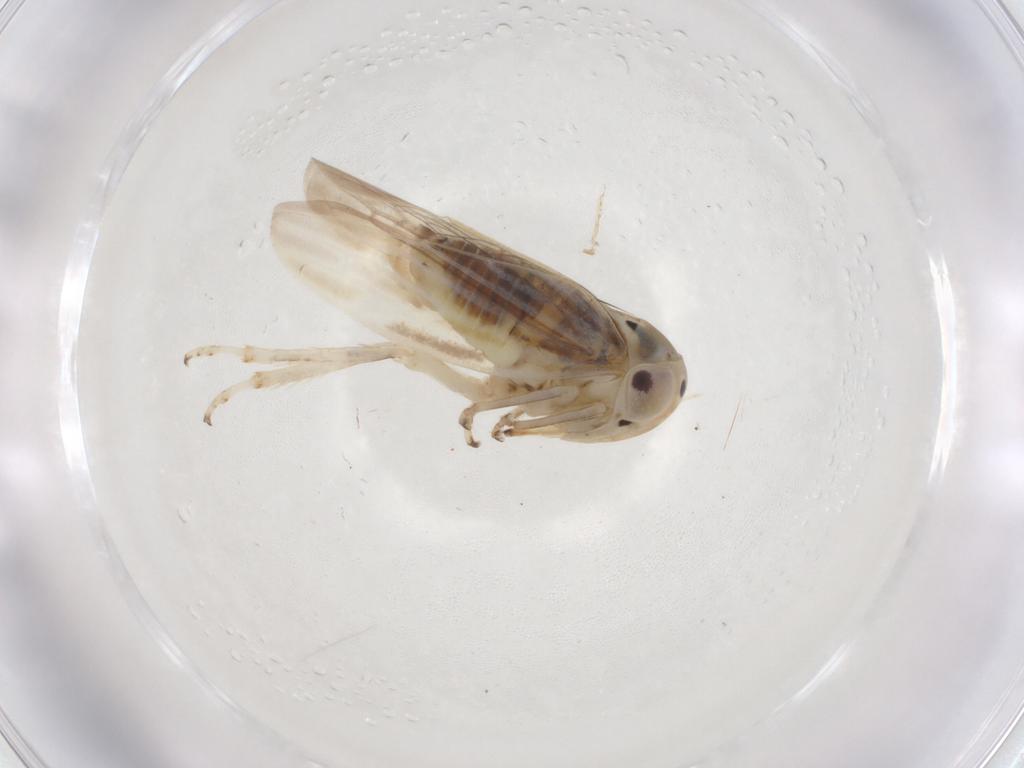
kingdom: Animalia
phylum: Arthropoda
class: Insecta
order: Hemiptera
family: Cicadellidae
